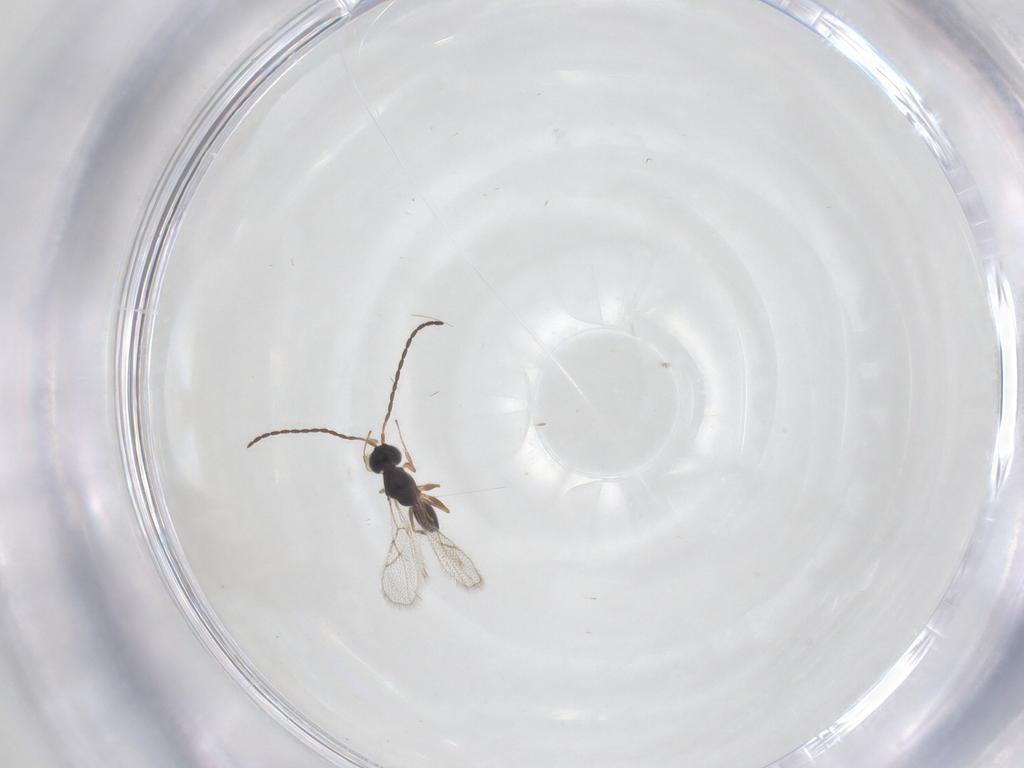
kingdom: Animalia
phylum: Arthropoda
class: Insecta
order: Hymenoptera
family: Figitidae
